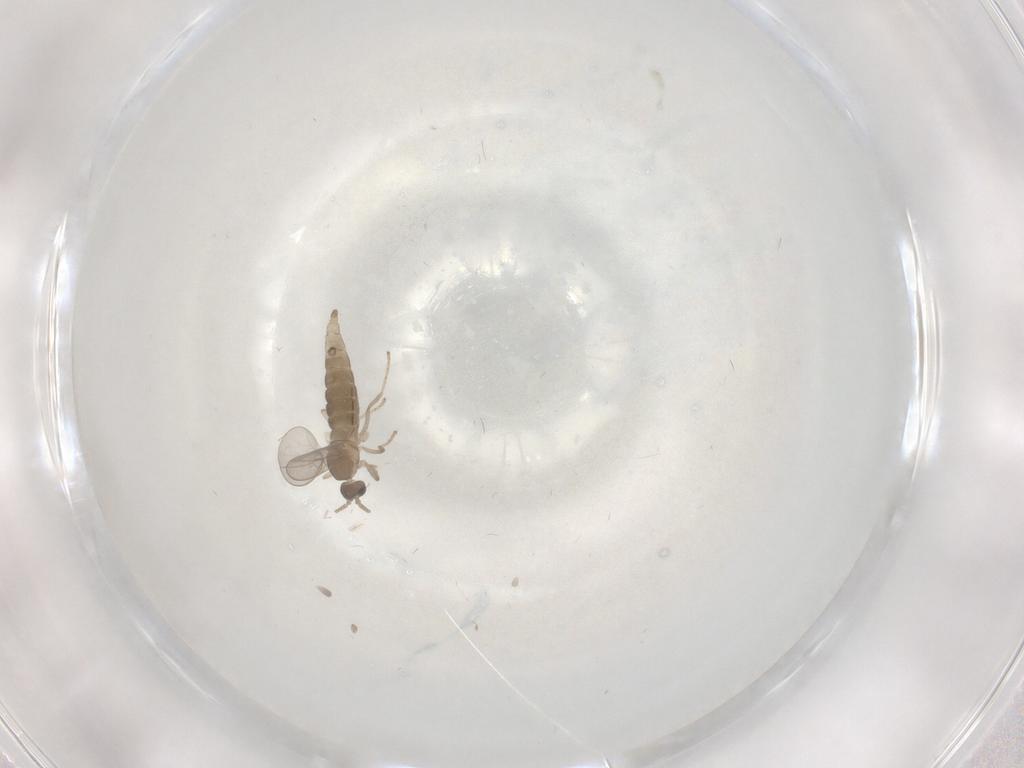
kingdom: Animalia
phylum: Arthropoda
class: Insecta
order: Diptera
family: Cecidomyiidae
